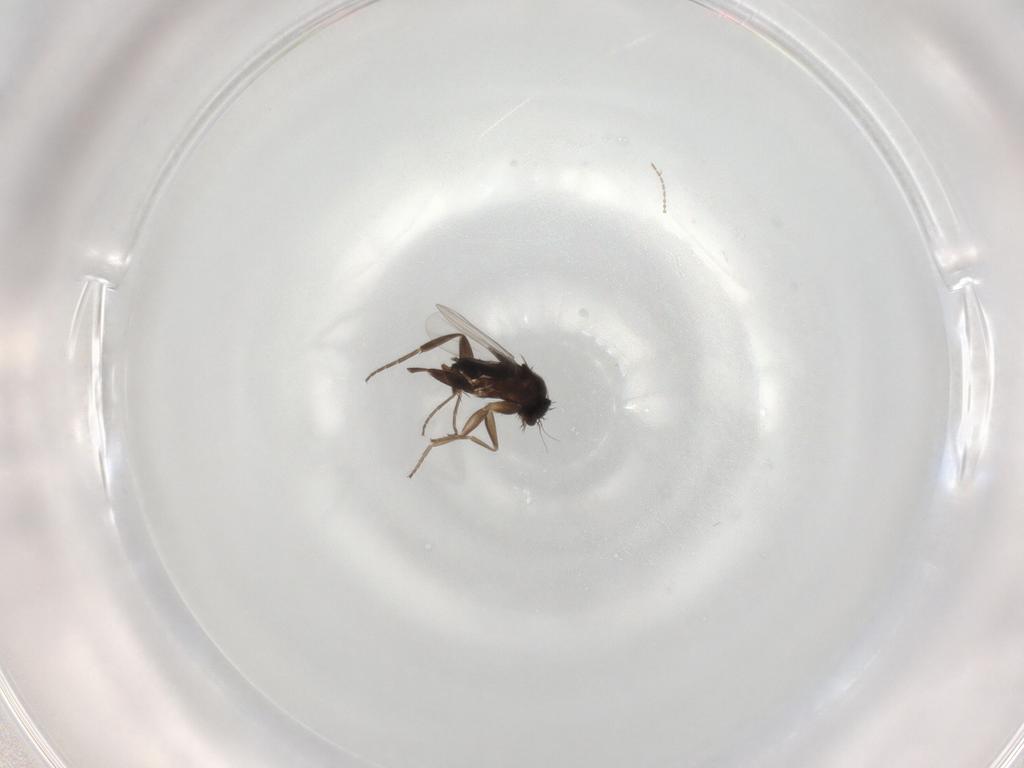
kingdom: Animalia
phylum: Arthropoda
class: Insecta
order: Diptera
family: Phoridae
